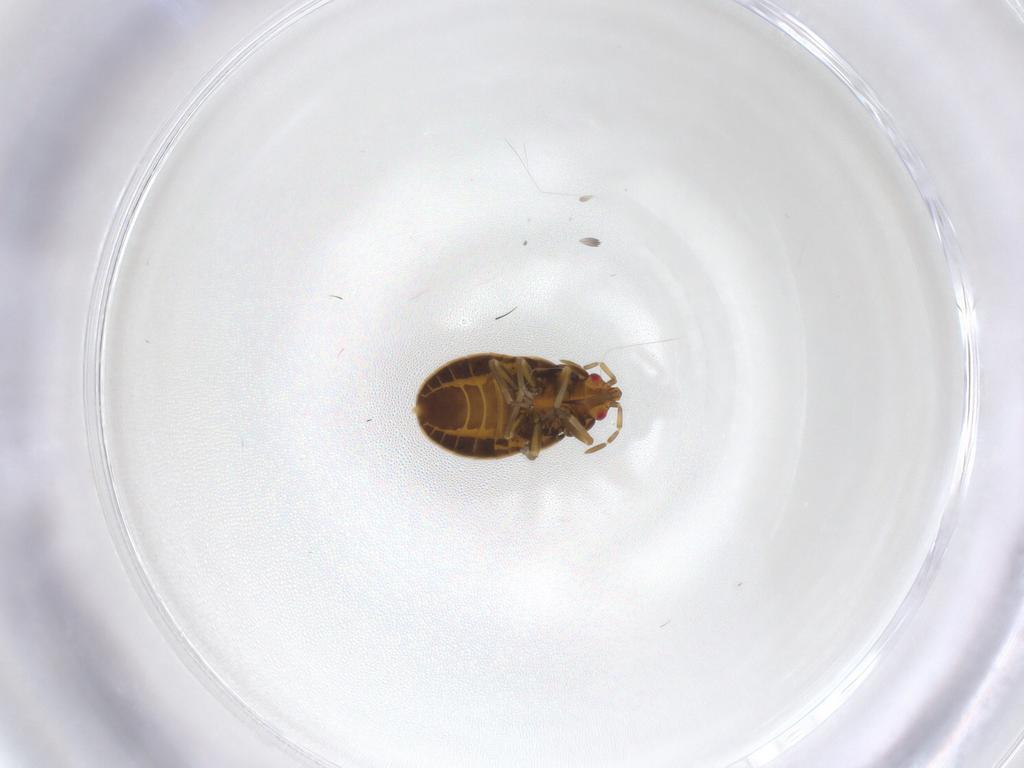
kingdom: Animalia
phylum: Arthropoda
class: Insecta
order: Hemiptera
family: Anthocoridae
